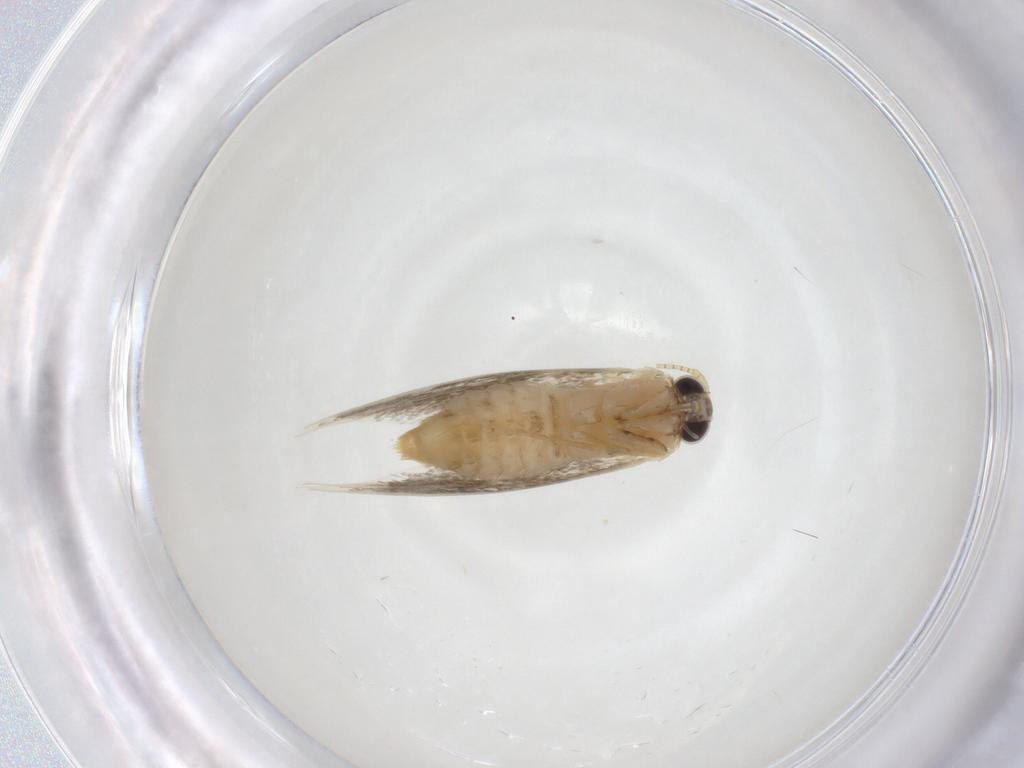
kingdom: Animalia
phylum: Arthropoda
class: Insecta
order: Lepidoptera
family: Tineidae
